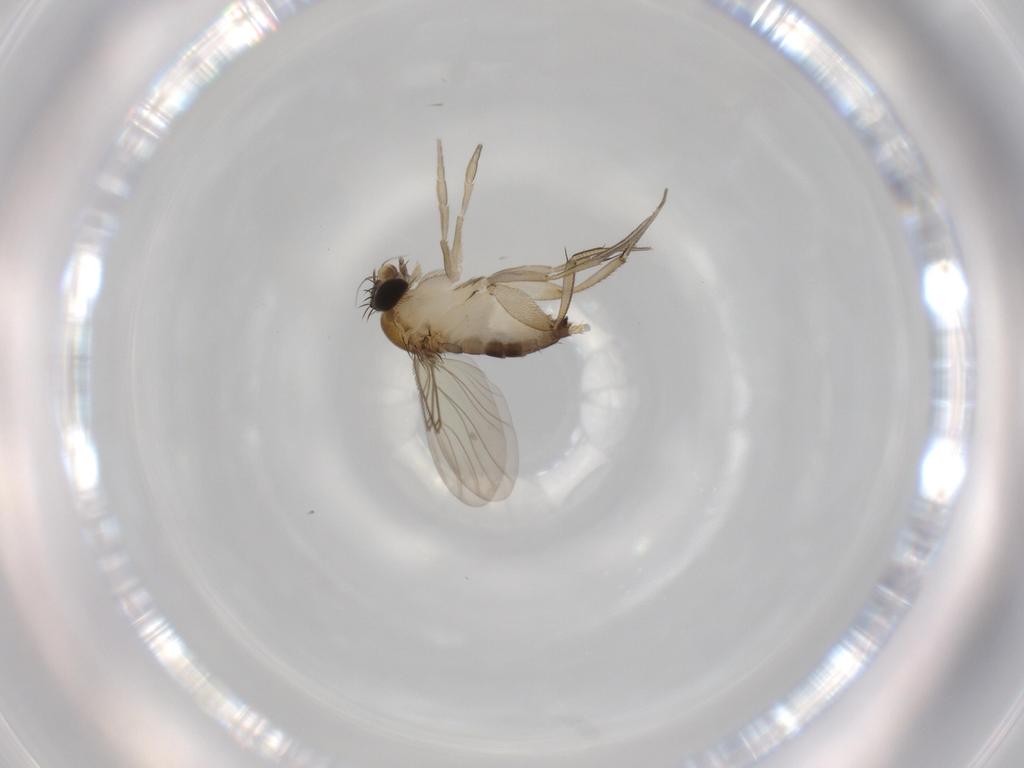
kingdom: Animalia
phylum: Arthropoda
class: Insecta
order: Diptera
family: Phoridae
